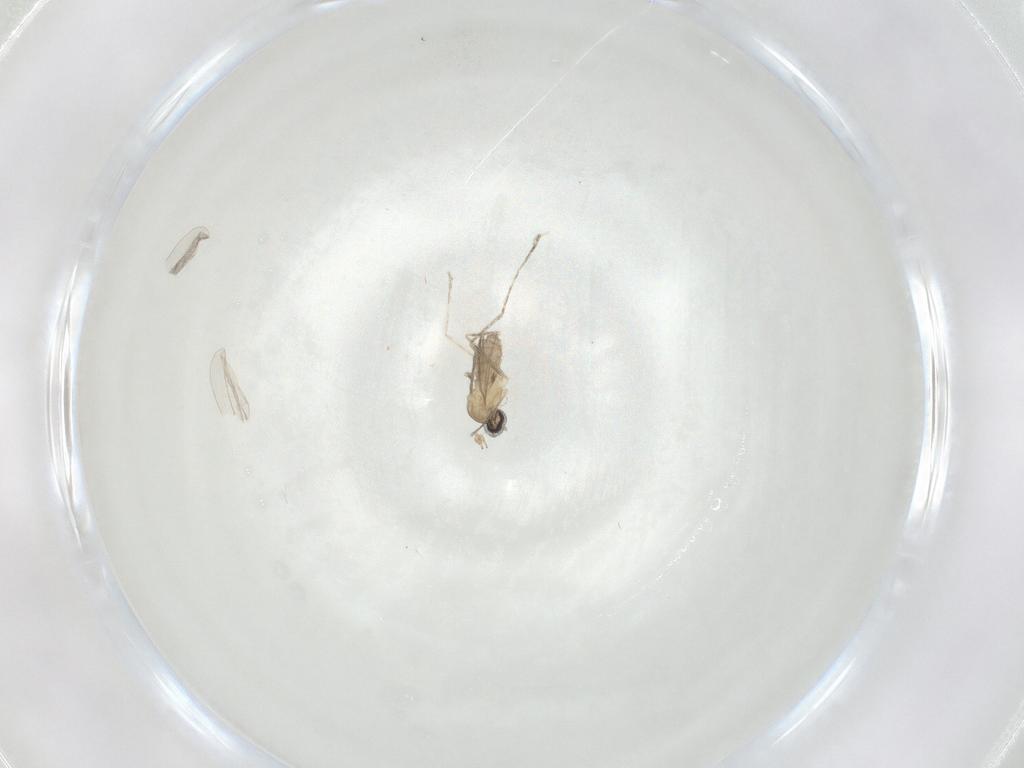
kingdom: Animalia
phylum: Arthropoda
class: Insecta
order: Diptera
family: Cecidomyiidae
